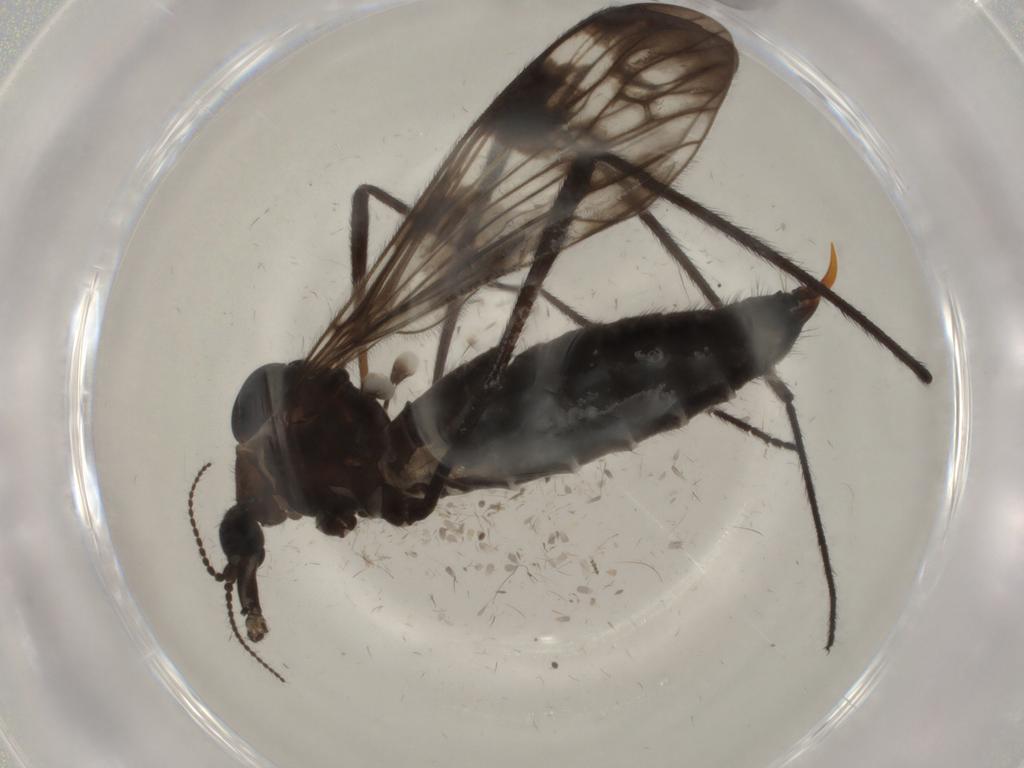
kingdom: Animalia
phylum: Arthropoda
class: Insecta
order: Diptera
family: Limoniidae
